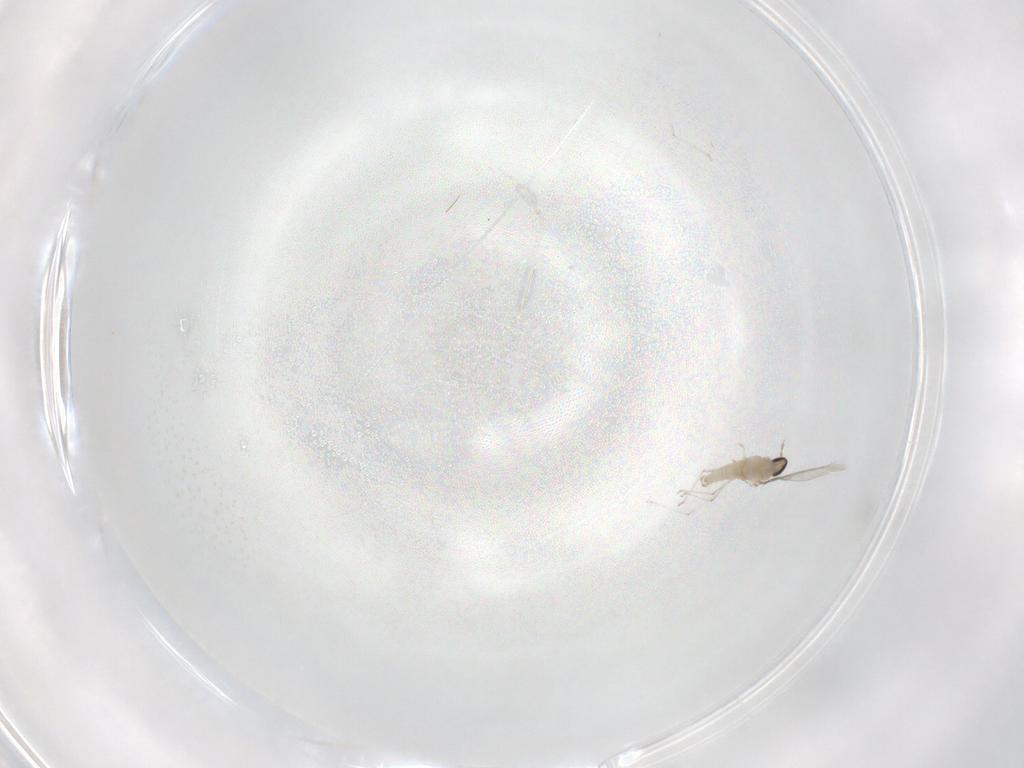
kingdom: Animalia
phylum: Arthropoda
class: Insecta
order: Diptera
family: Cecidomyiidae
